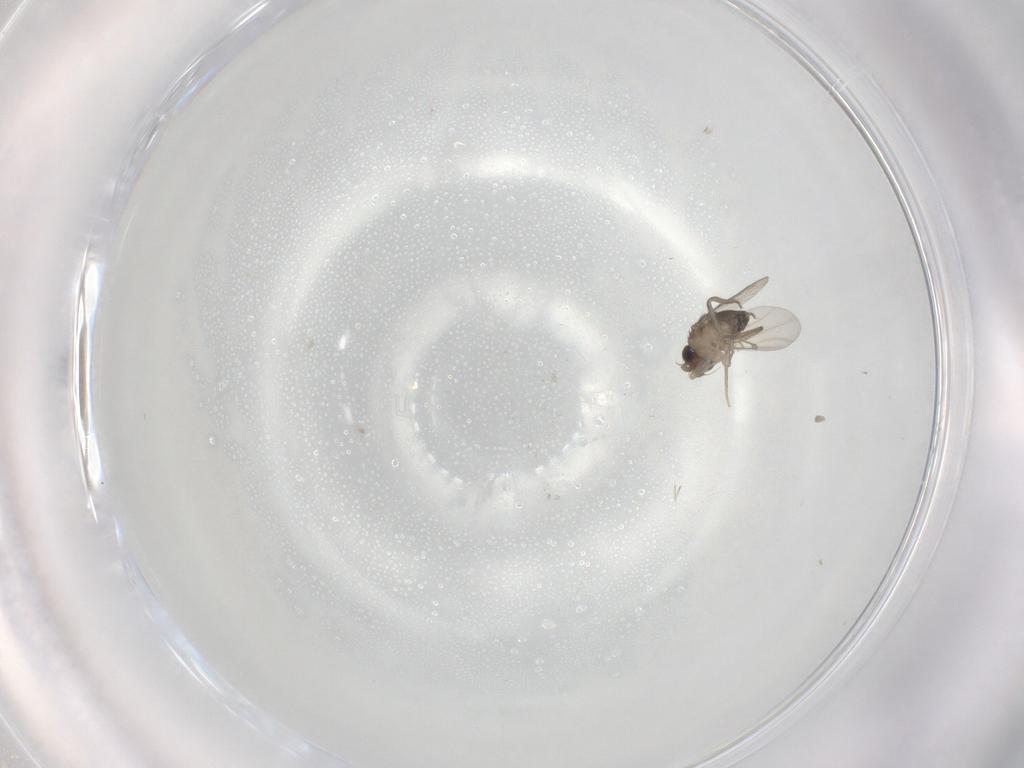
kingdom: Animalia
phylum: Arthropoda
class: Insecta
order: Diptera
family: Phoridae
